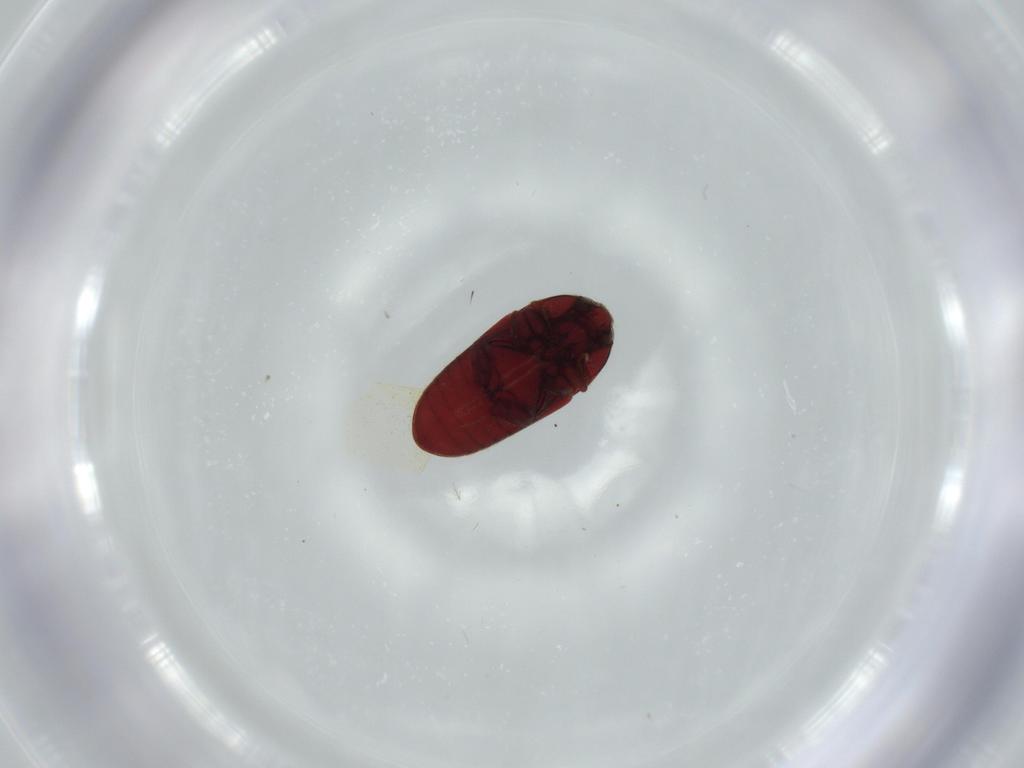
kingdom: Animalia
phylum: Arthropoda
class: Insecta
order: Coleoptera
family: Throscidae
